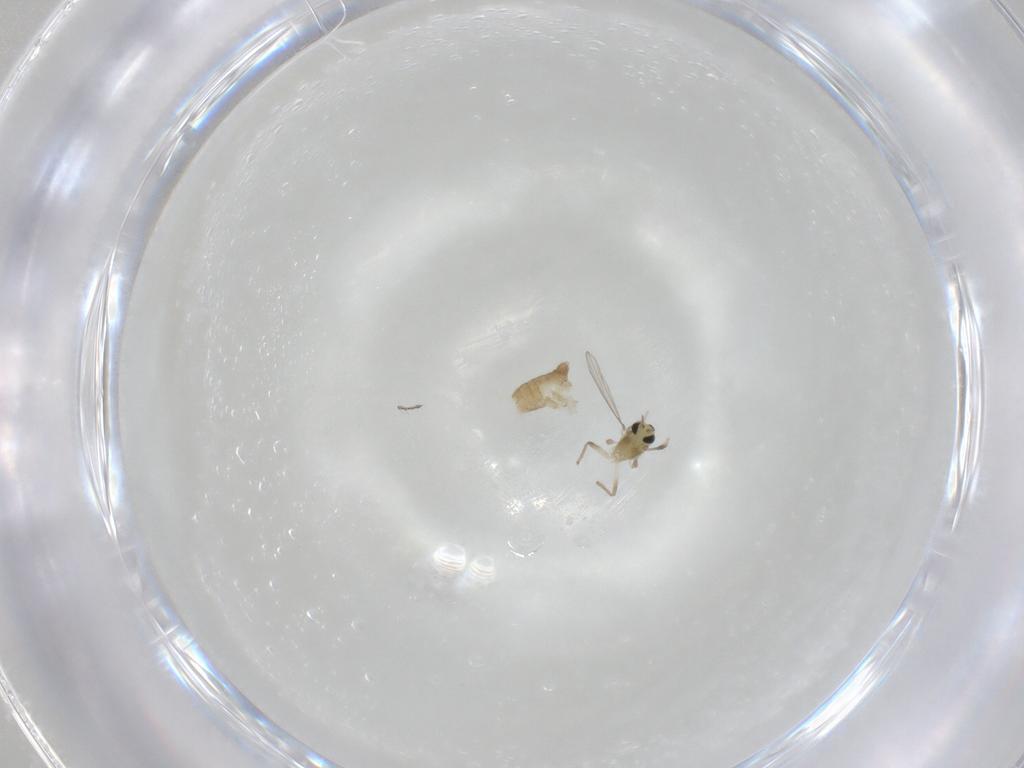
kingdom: Animalia
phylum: Arthropoda
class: Insecta
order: Diptera
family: Chironomidae
